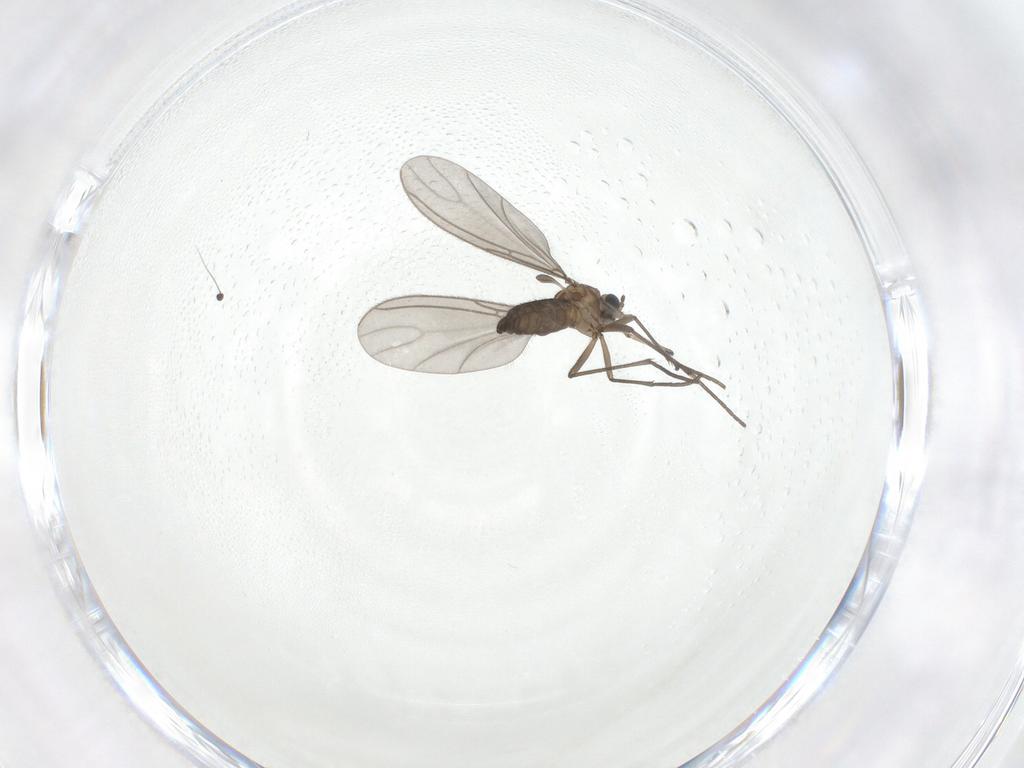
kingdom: Animalia
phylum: Arthropoda
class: Insecta
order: Diptera
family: Sciaridae
